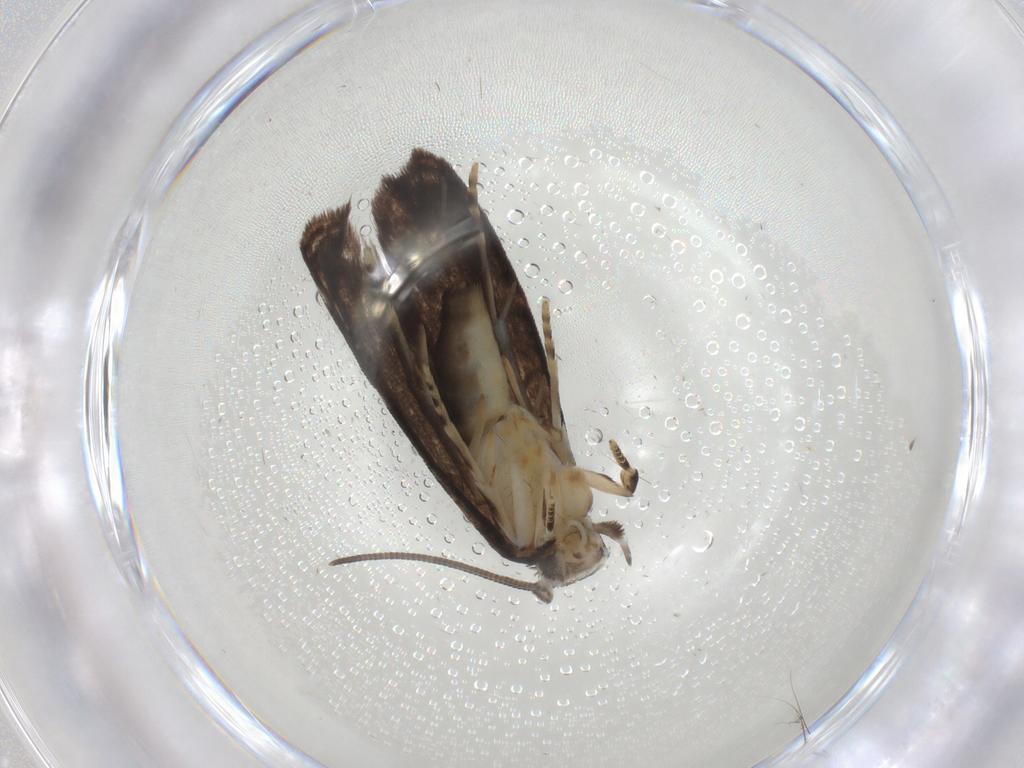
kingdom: Animalia
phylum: Arthropoda
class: Insecta
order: Lepidoptera
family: Dryadaulidae
